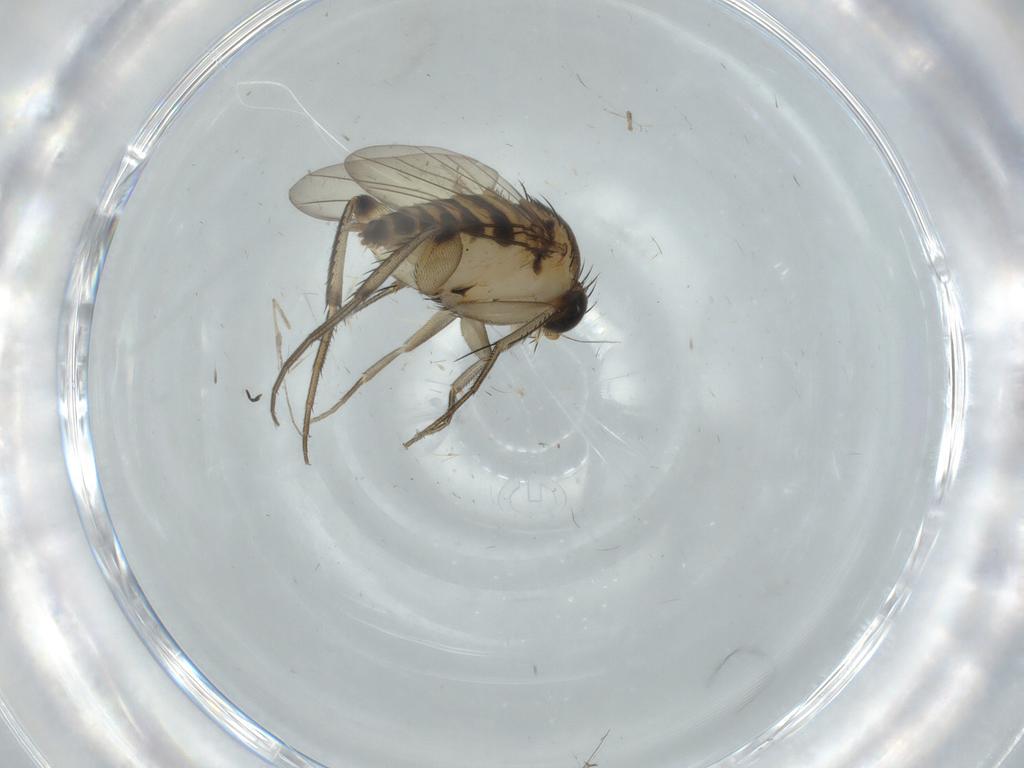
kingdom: Animalia
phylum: Arthropoda
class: Insecta
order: Diptera
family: Cecidomyiidae
